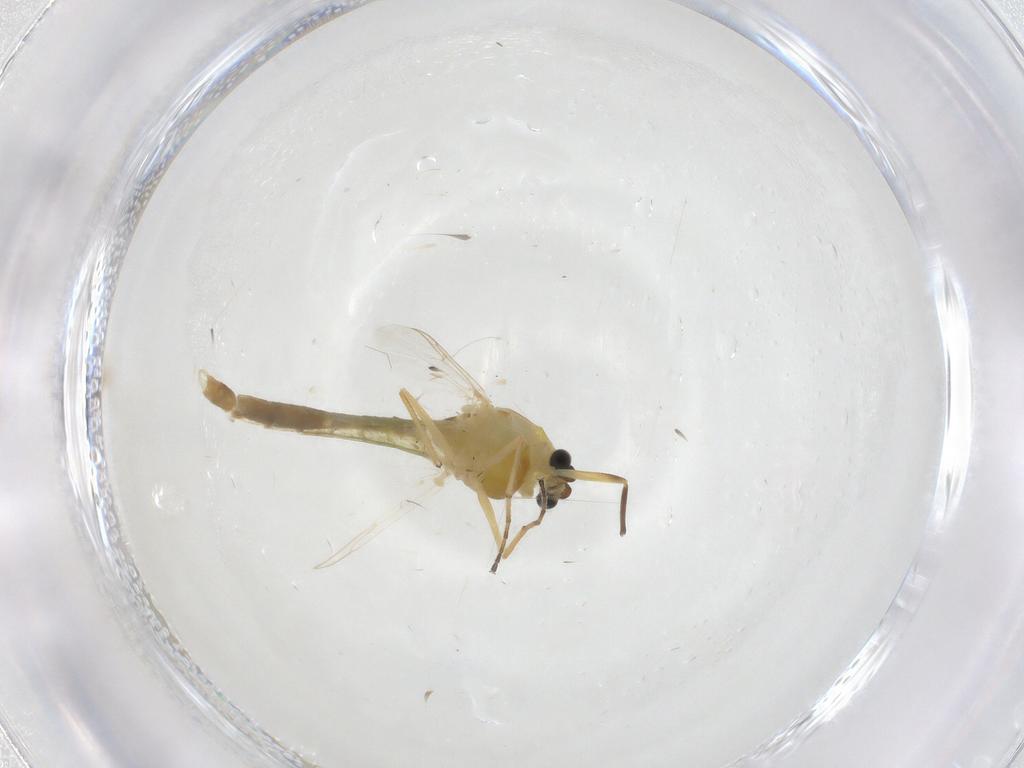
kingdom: Animalia
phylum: Arthropoda
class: Insecta
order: Diptera
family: Chironomidae
